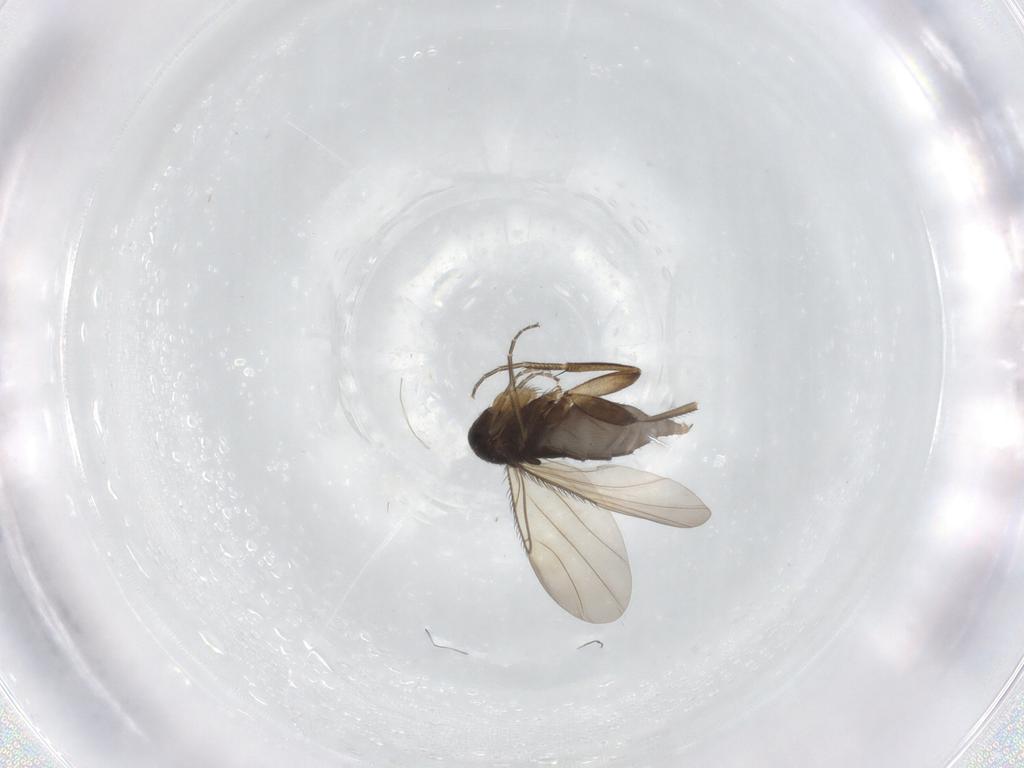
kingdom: Animalia
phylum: Arthropoda
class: Insecta
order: Diptera
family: Phoridae
